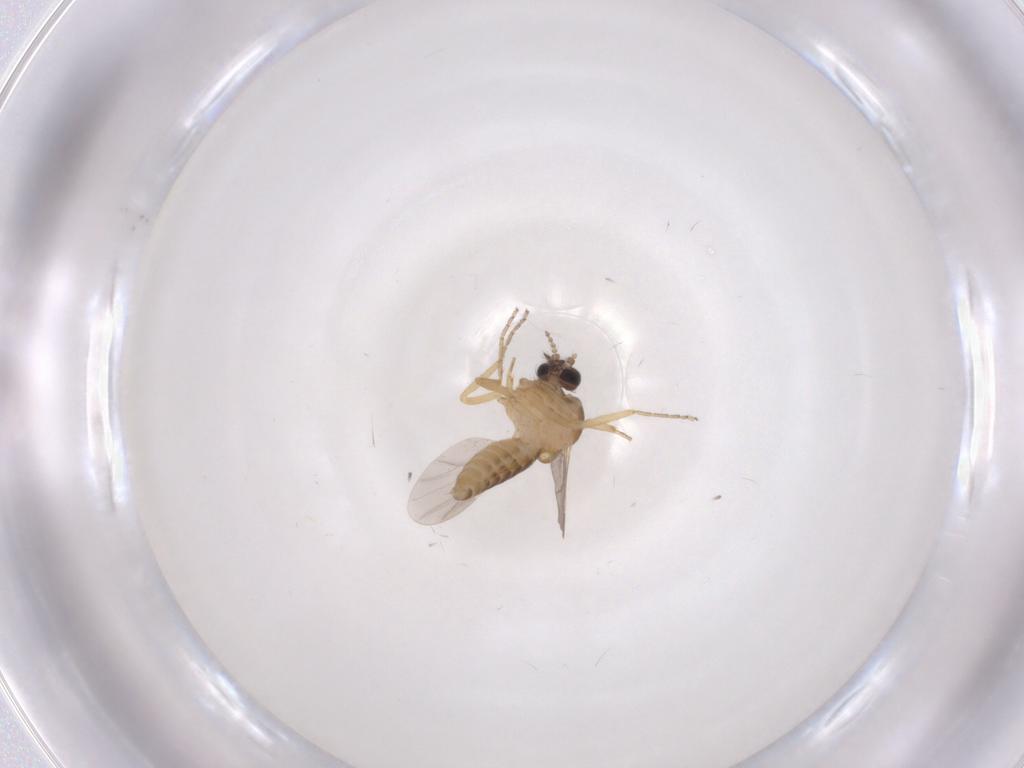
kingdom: Animalia
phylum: Arthropoda
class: Insecta
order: Diptera
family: Ceratopogonidae
